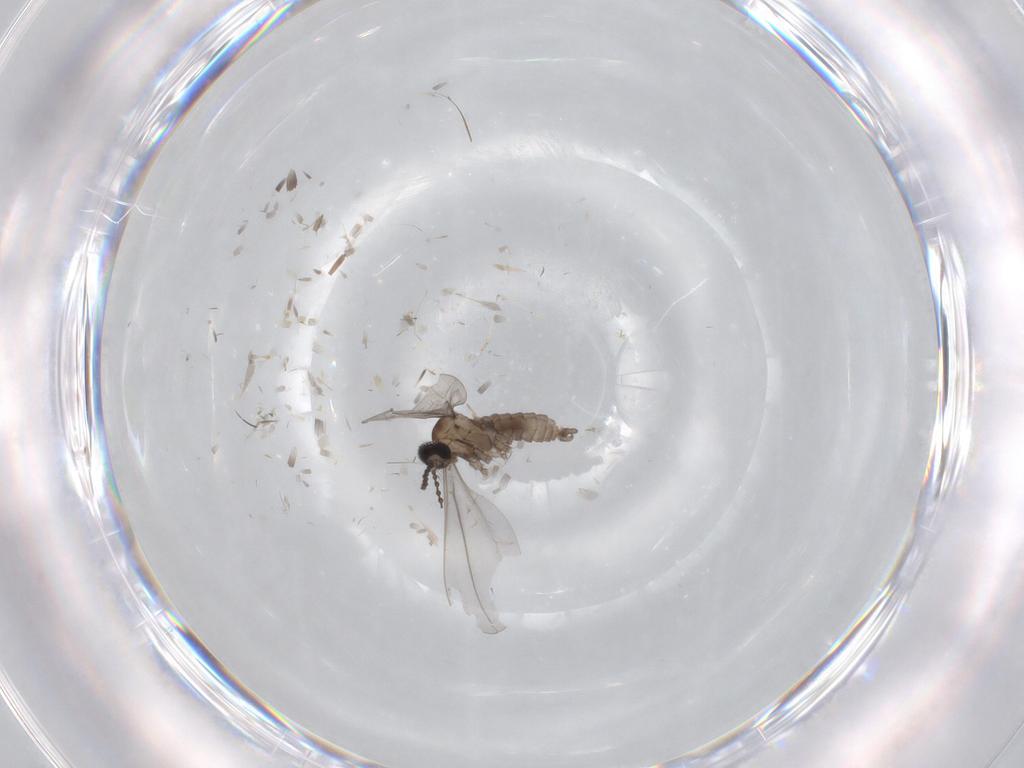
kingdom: Animalia
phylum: Arthropoda
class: Insecta
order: Diptera
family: Cecidomyiidae
